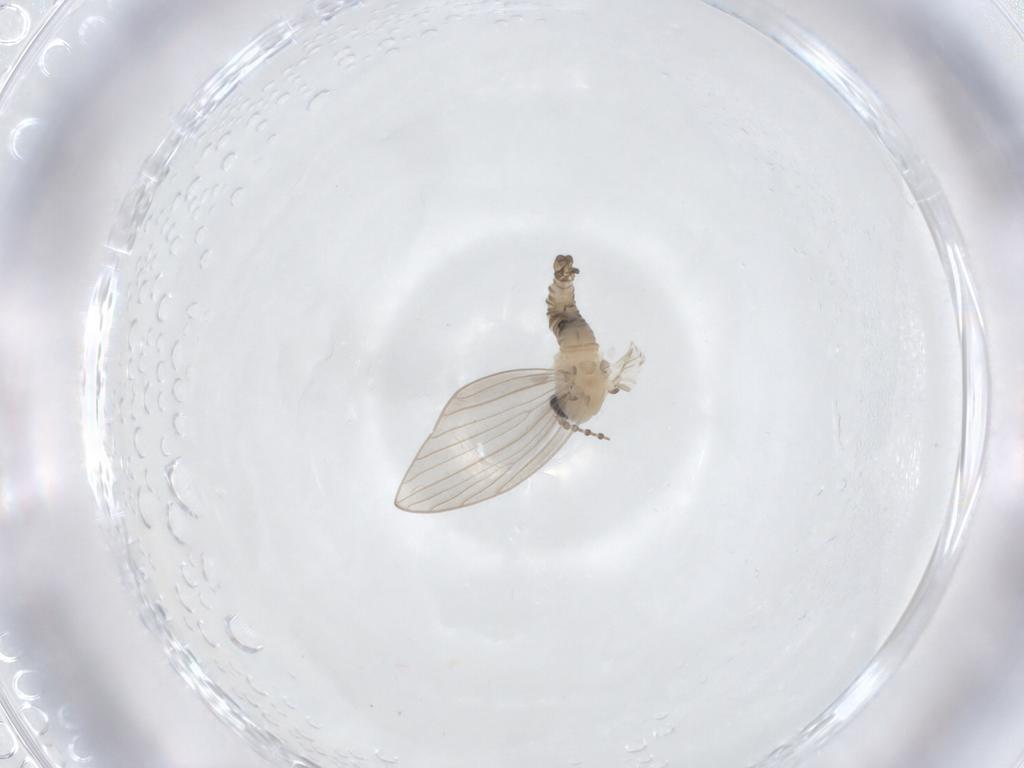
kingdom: Animalia
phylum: Arthropoda
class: Insecta
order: Diptera
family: Psychodidae
